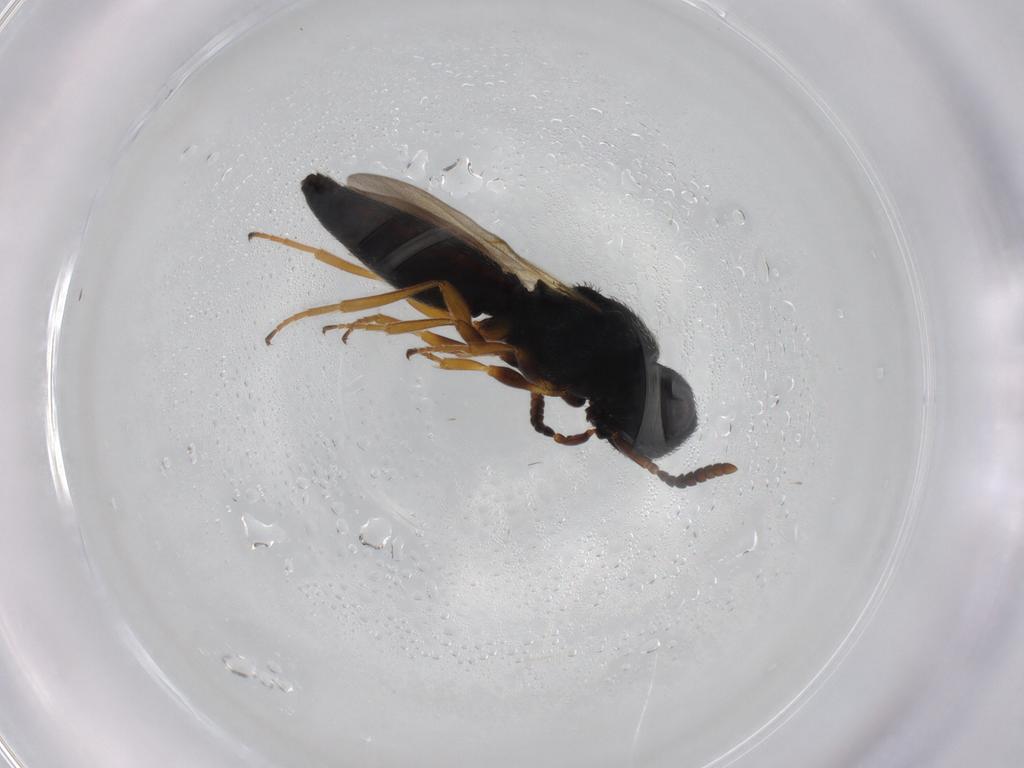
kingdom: Animalia
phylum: Arthropoda
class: Insecta
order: Hymenoptera
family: Scelionidae
